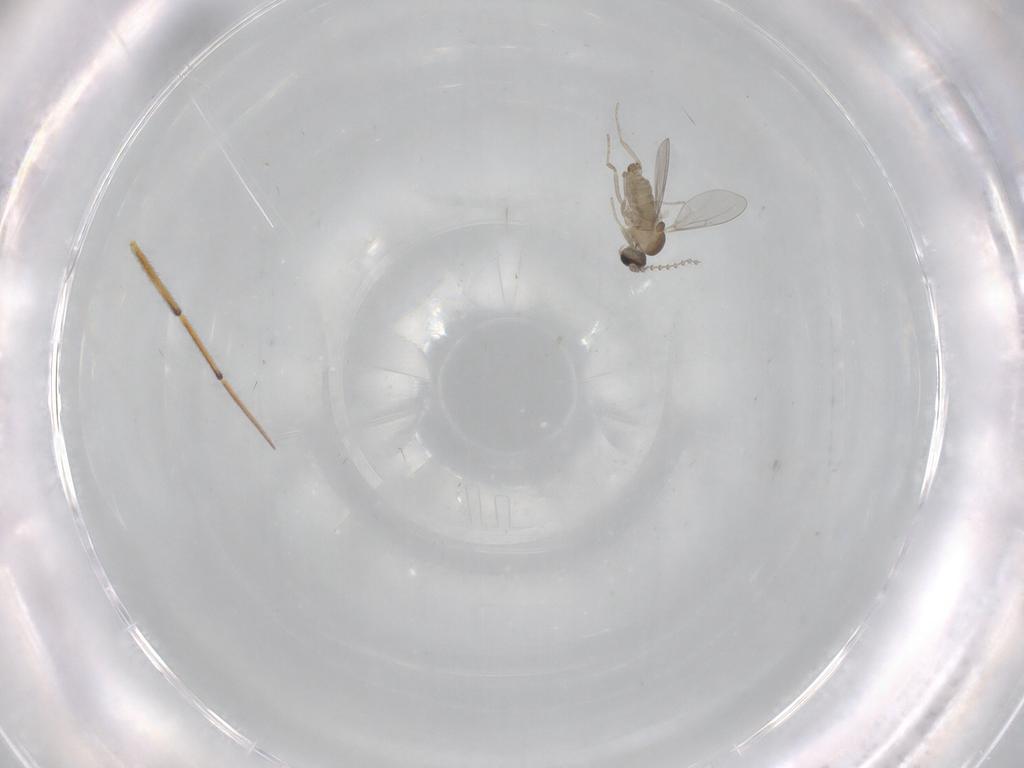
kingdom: Animalia
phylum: Arthropoda
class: Insecta
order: Diptera
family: Cecidomyiidae
